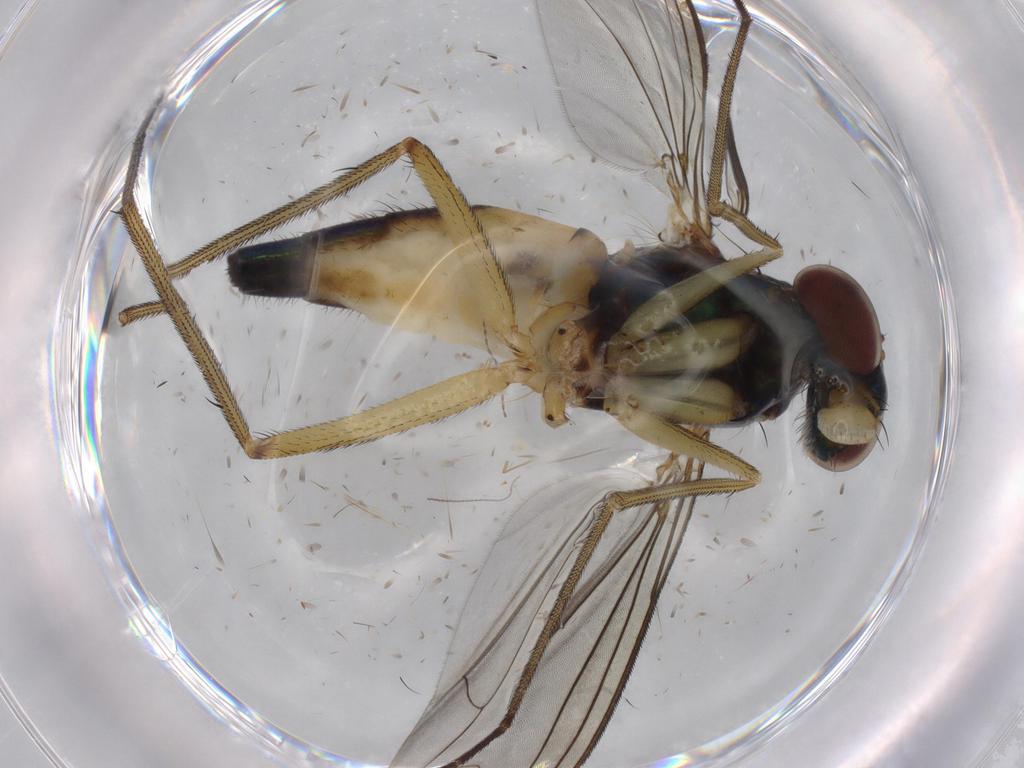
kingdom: Animalia
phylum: Arthropoda
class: Insecta
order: Diptera
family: Dolichopodidae
